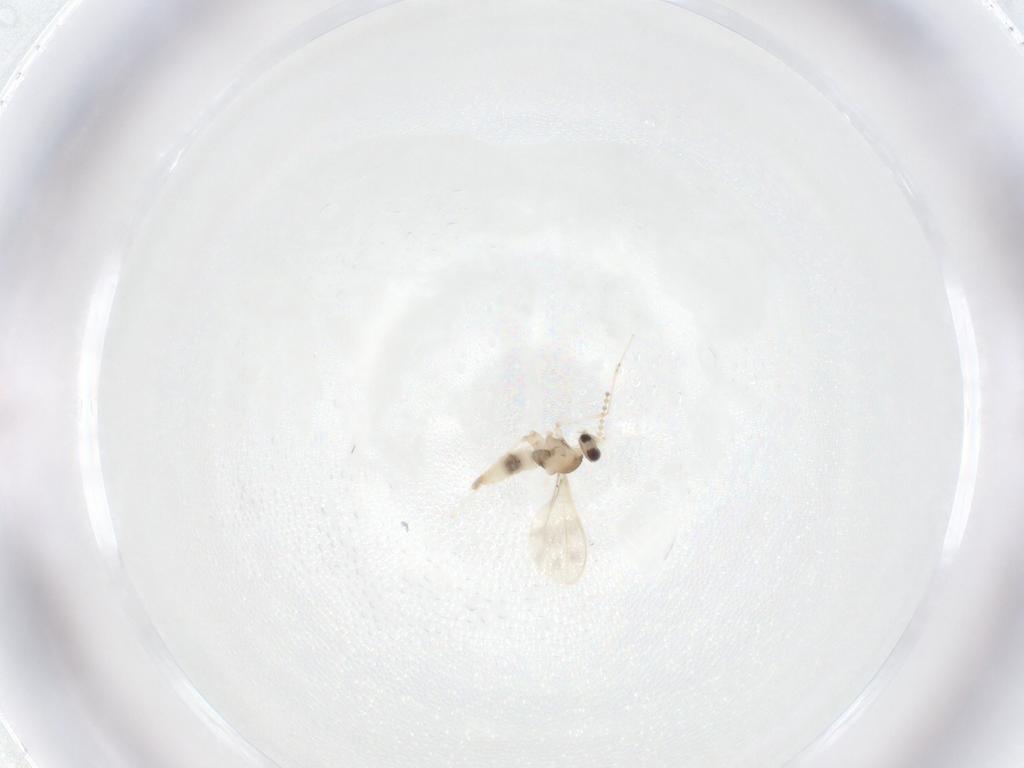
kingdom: Animalia
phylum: Arthropoda
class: Insecta
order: Diptera
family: Cecidomyiidae
